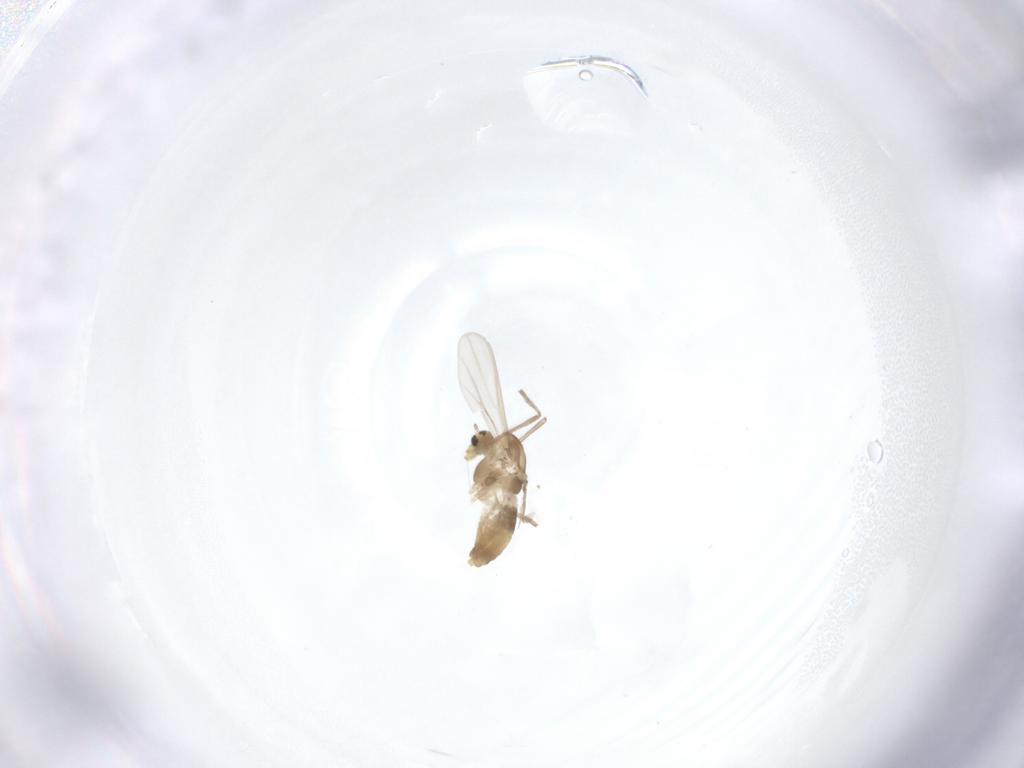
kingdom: Animalia
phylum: Arthropoda
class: Insecta
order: Diptera
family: Chironomidae
